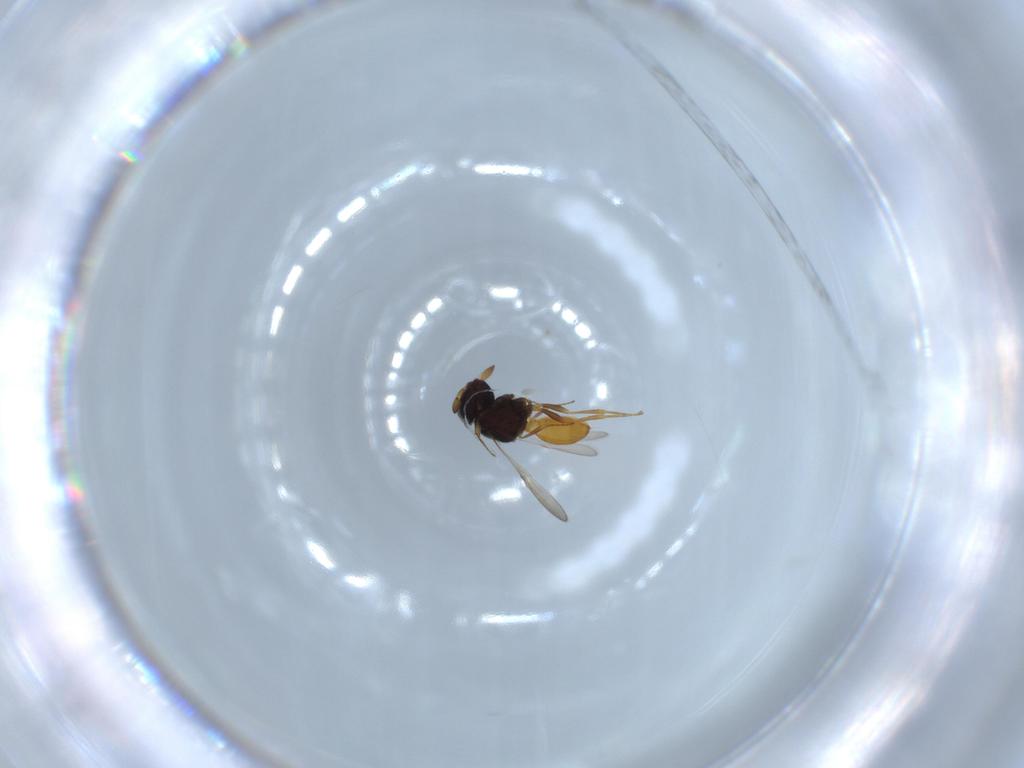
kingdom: Animalia
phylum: Arthropoda
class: Insecta
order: Hymenoptera
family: Scelionidae
